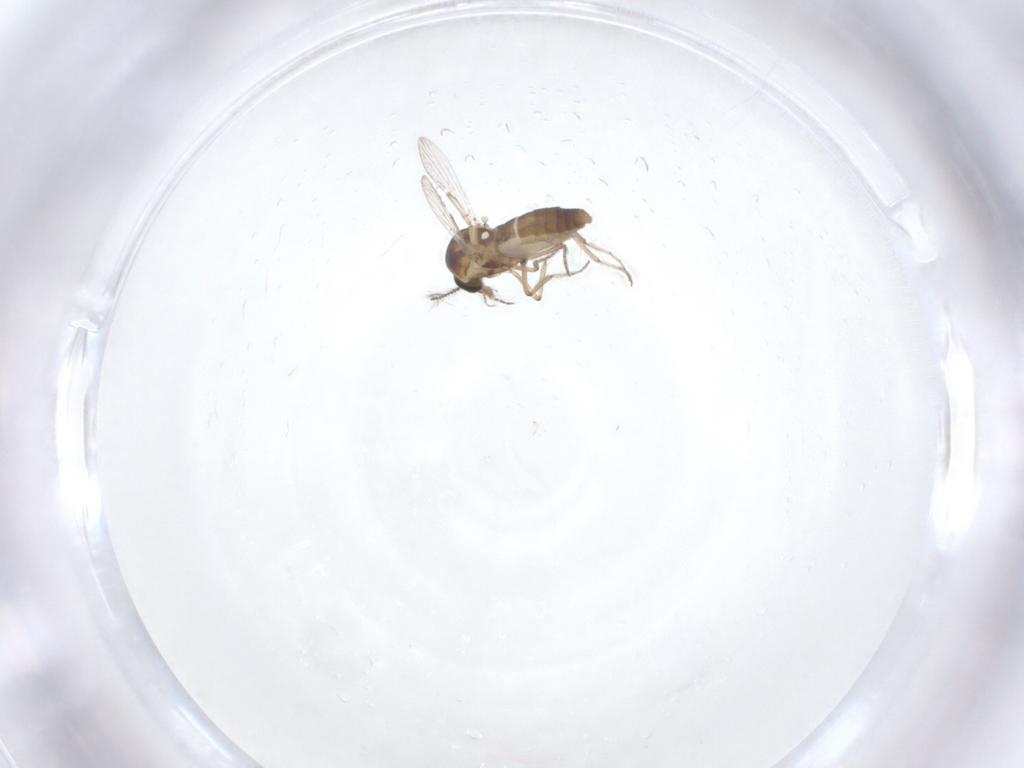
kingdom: Animalia
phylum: Arthropoda
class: Insecta
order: Diptera
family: Ceratopogonidae
